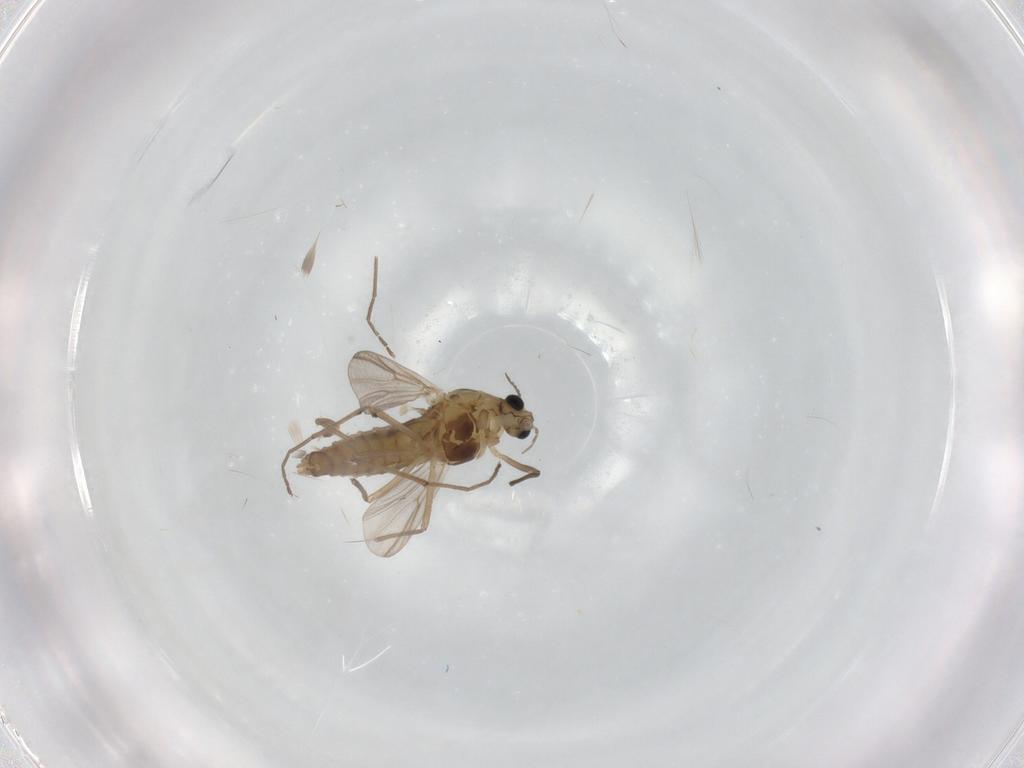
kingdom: Animalia
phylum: Arthropoda
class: Insecta
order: Diptera
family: Chironomidae
